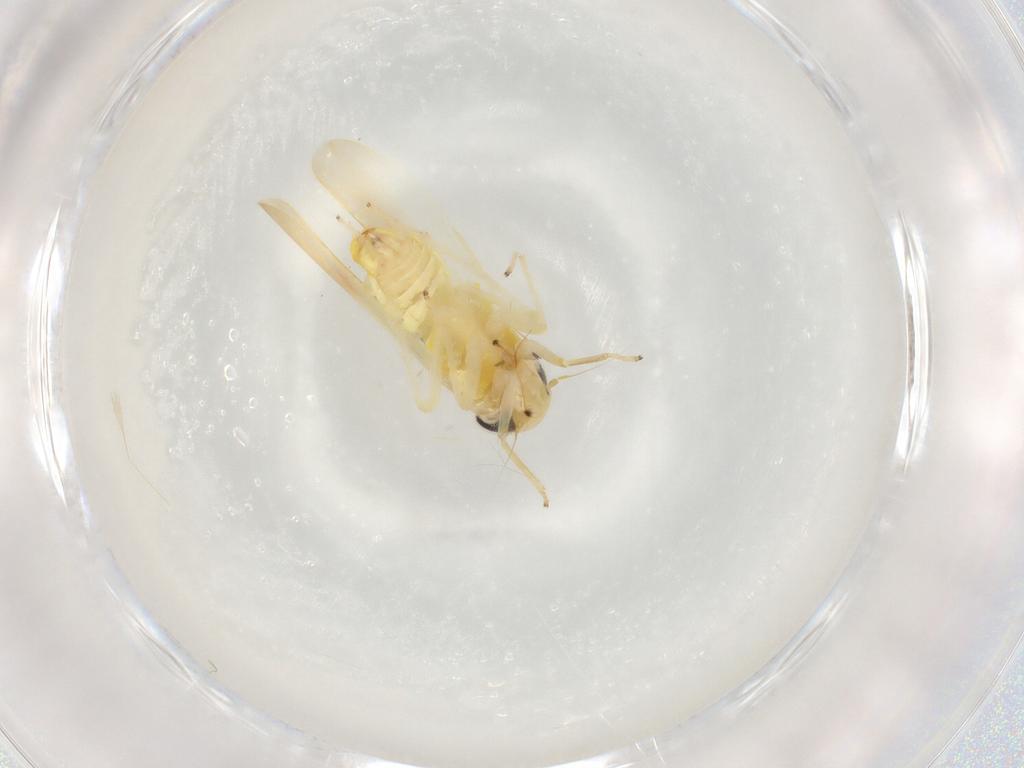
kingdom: Animalia
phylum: Arthropoda
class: Insecta
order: Hemiptera
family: Cicadellidae
